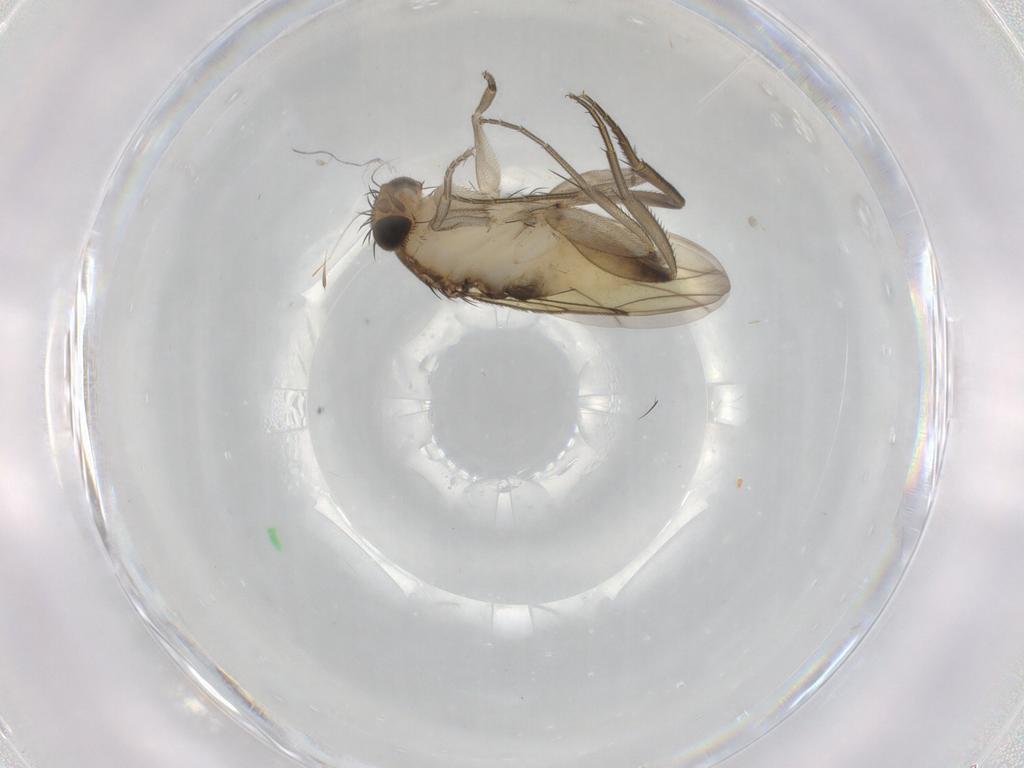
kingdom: Animalia
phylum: Arthropoda
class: Insecta
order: Diptera
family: Cecidomyiidae
